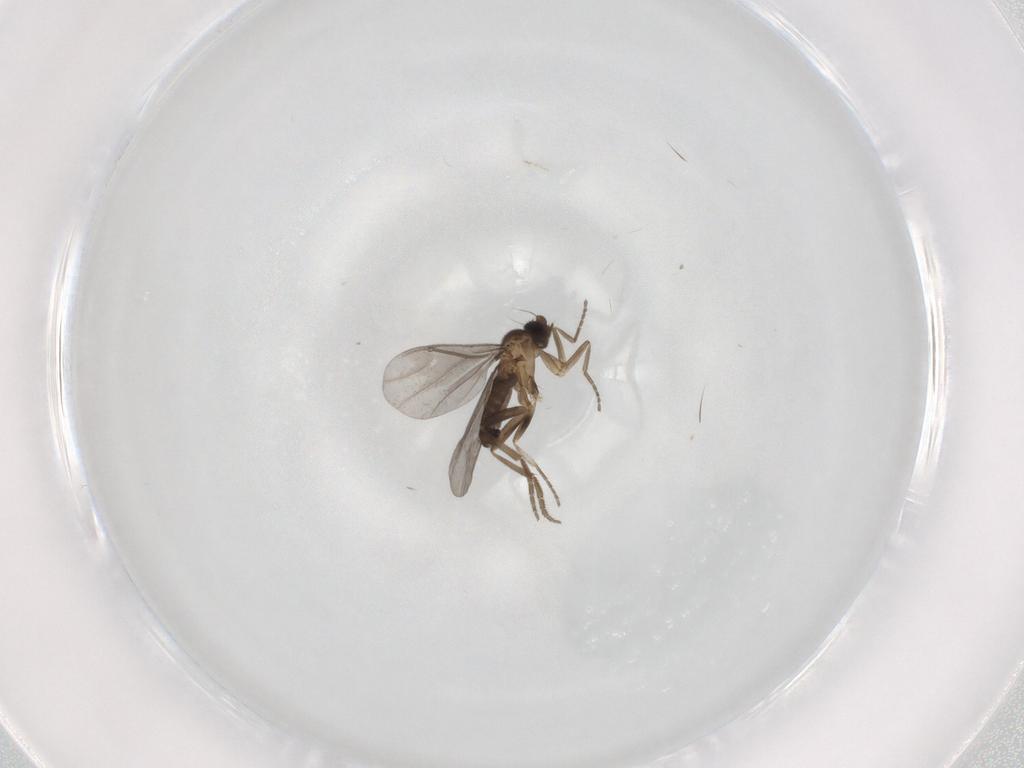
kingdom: Animalia
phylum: Arthropoda
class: Insecta
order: Diptera
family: Phoridae
